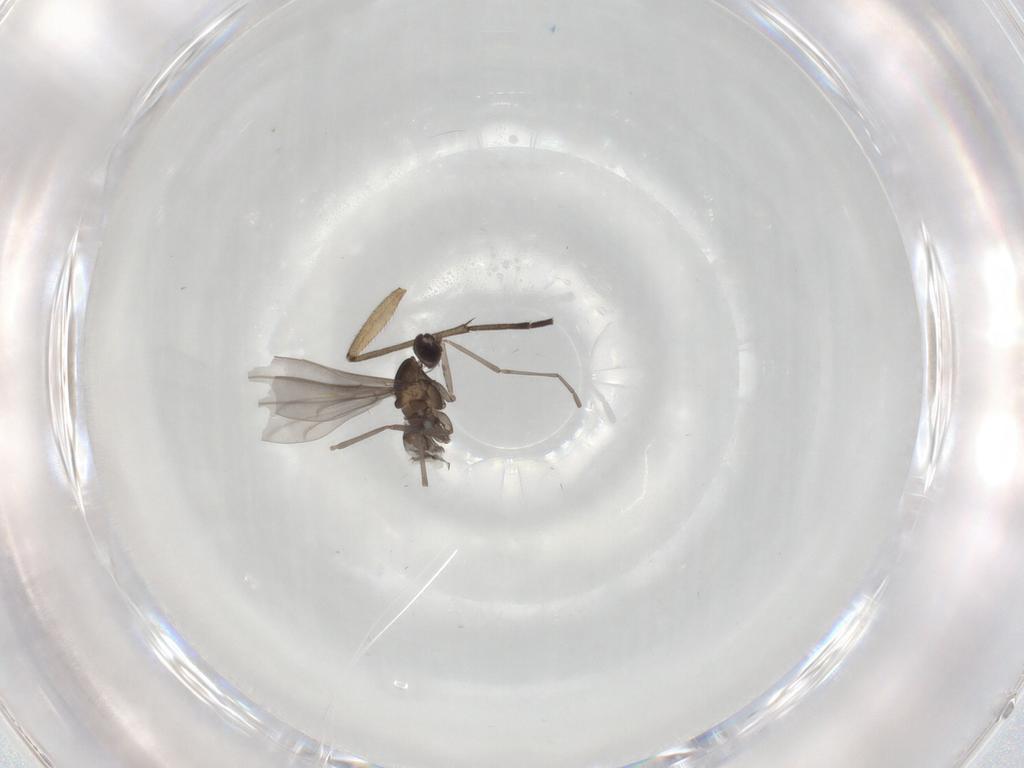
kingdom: Animalia
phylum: Arthropoda
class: Insecta
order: Diptera
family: Cecidomyiidae
